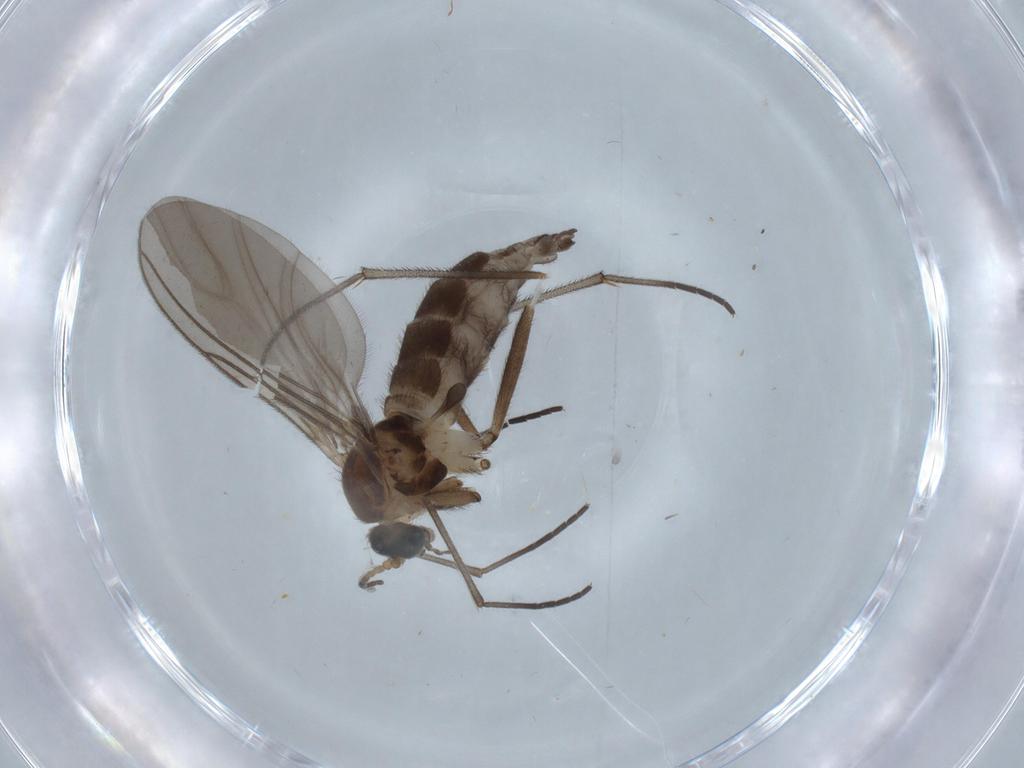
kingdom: Animalia
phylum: Arthropoda
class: Insecta
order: Diptera
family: Sciaridae
